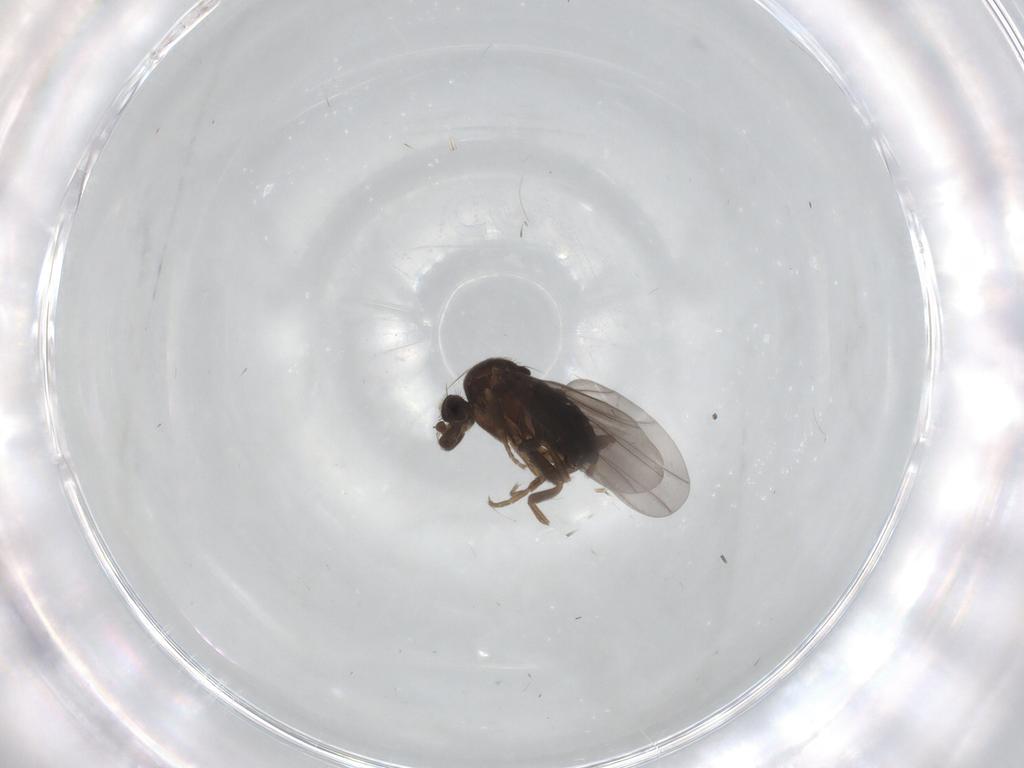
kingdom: Animalia
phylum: Arthropoda
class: Insecta
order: Diptera
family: Phoridae
